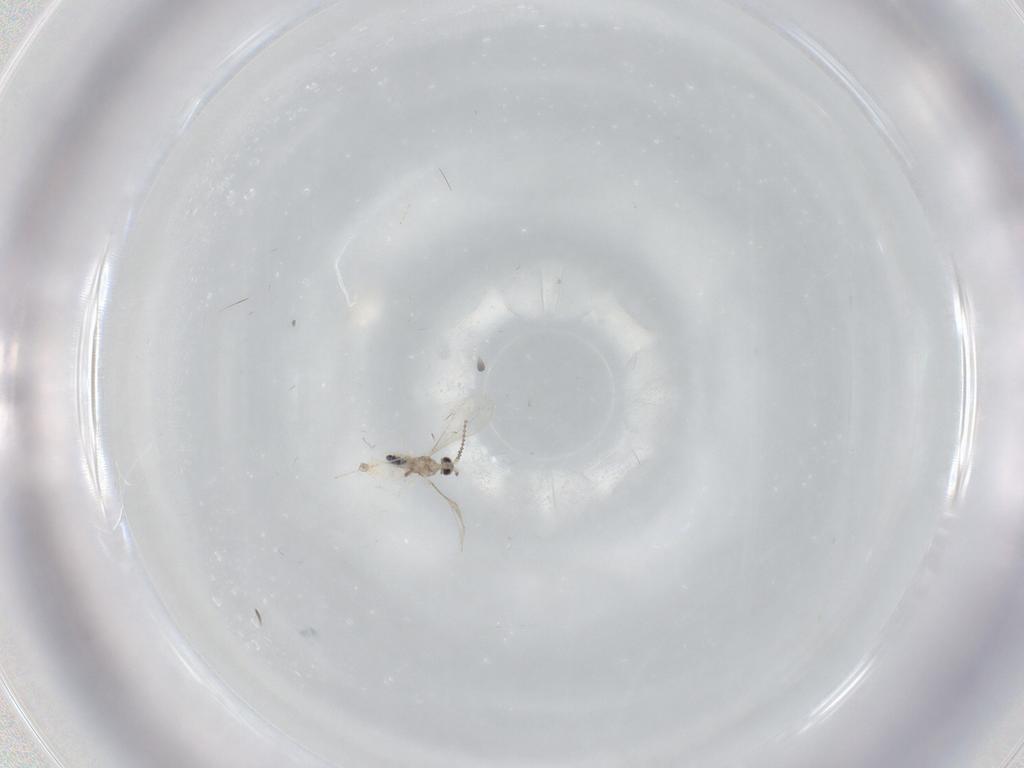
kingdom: Animalia
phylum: Arthropoda
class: Insecta
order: Diptera
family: Cecidomyiidae
